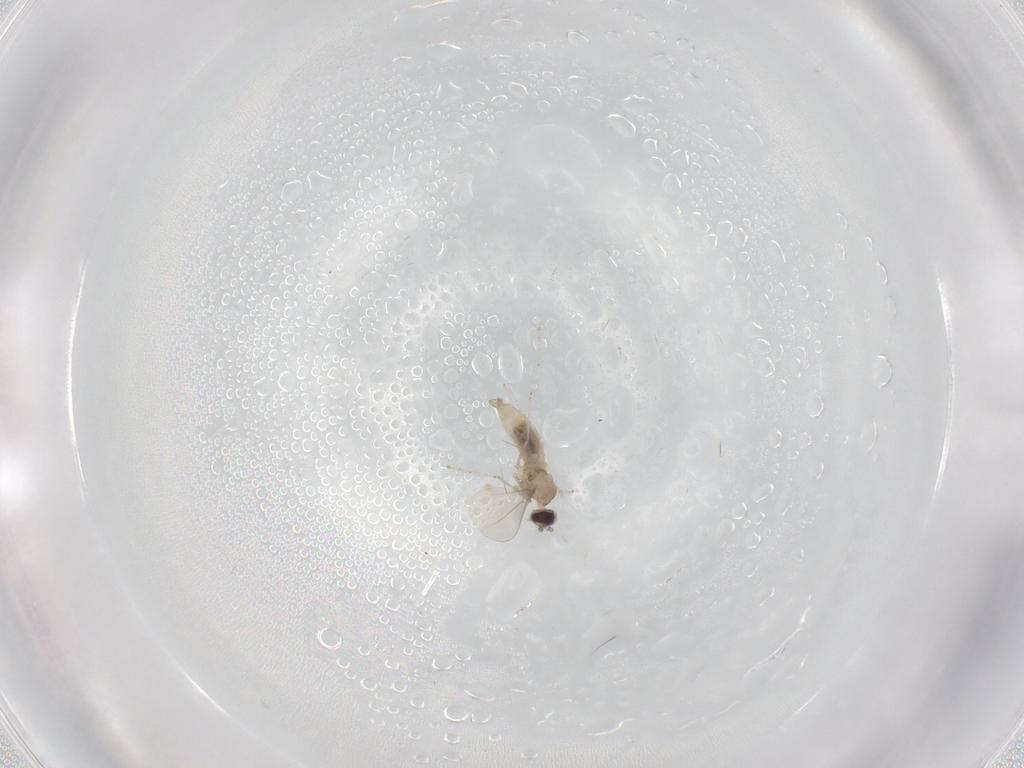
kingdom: Animalia
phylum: Arthropoda
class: Insecta
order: Diptera
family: Cecidomyiidae
